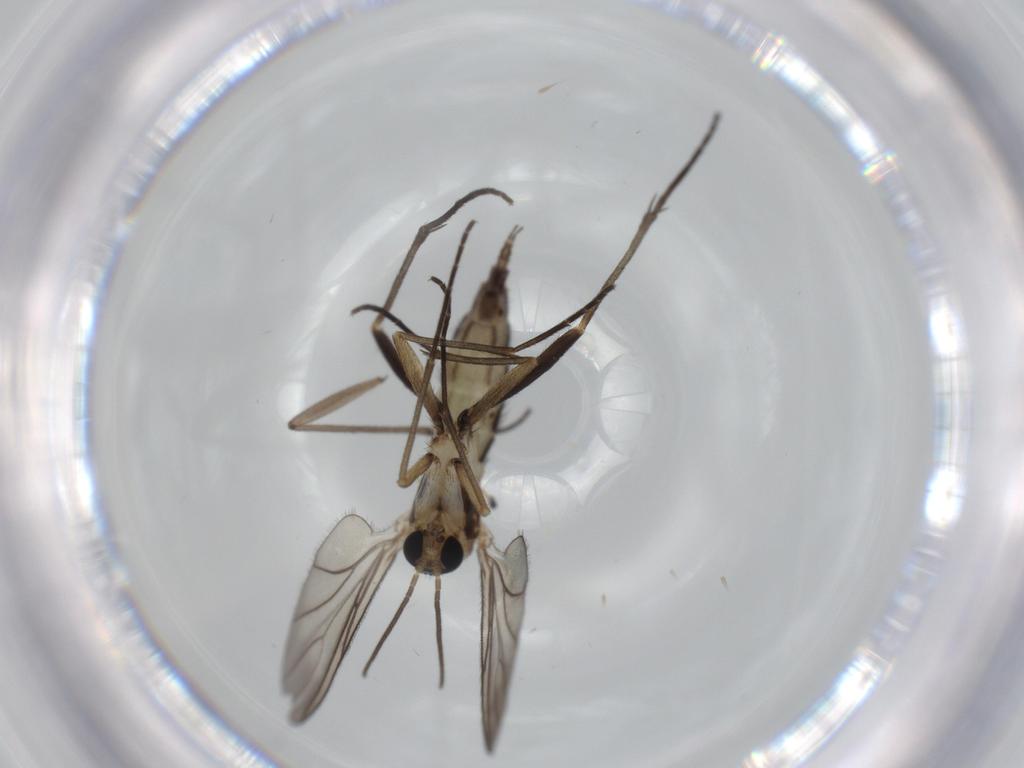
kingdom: Animalia
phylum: Arthropoda
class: Insecta
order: Diptera
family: Sciaridae
